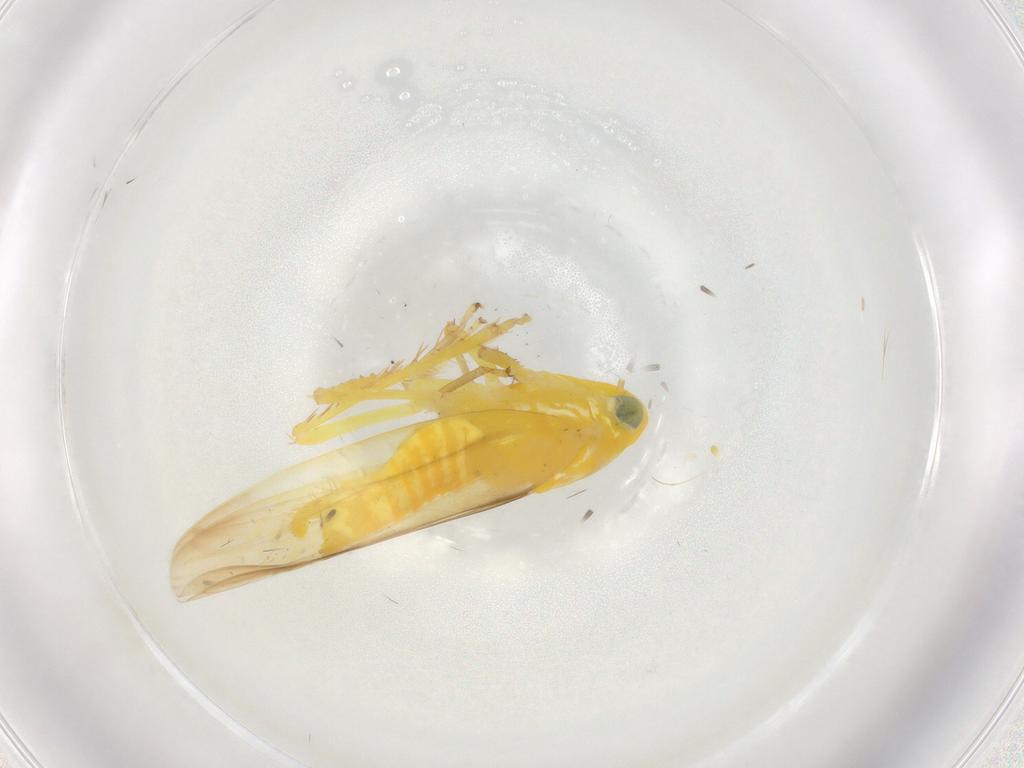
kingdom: Animalia
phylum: Arthropoda
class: Insecta
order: Hemiptera
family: Cicadellidae
